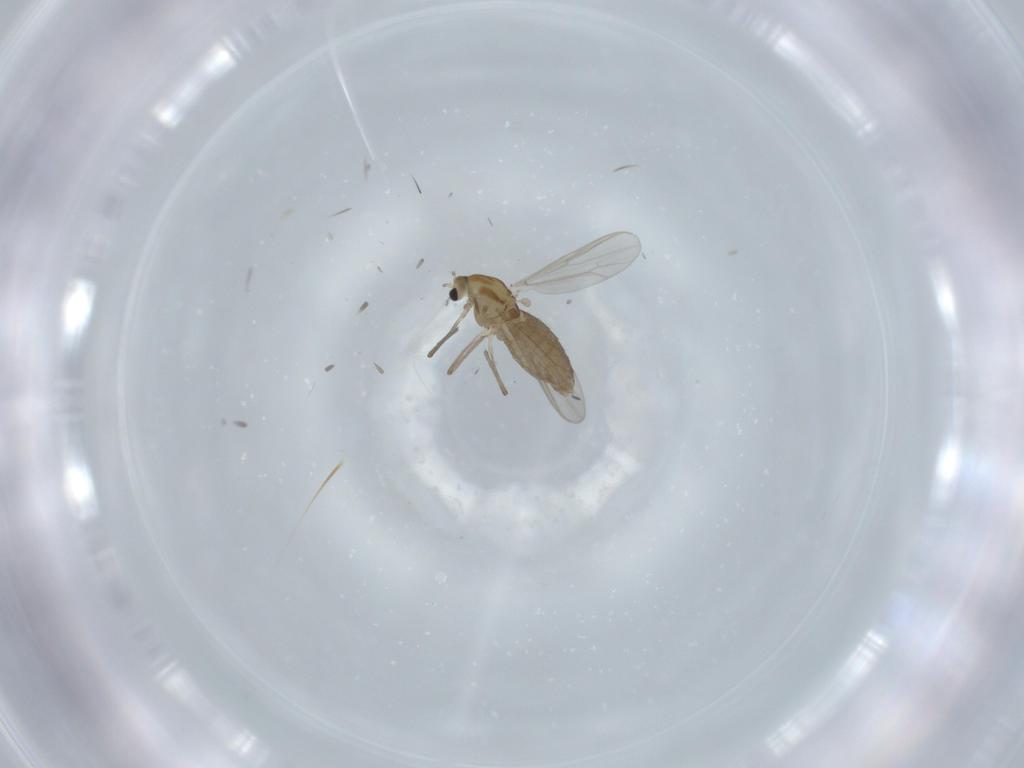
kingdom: Animalia
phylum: Arthropoda
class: Insecta
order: Diptera
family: Chironomidae
